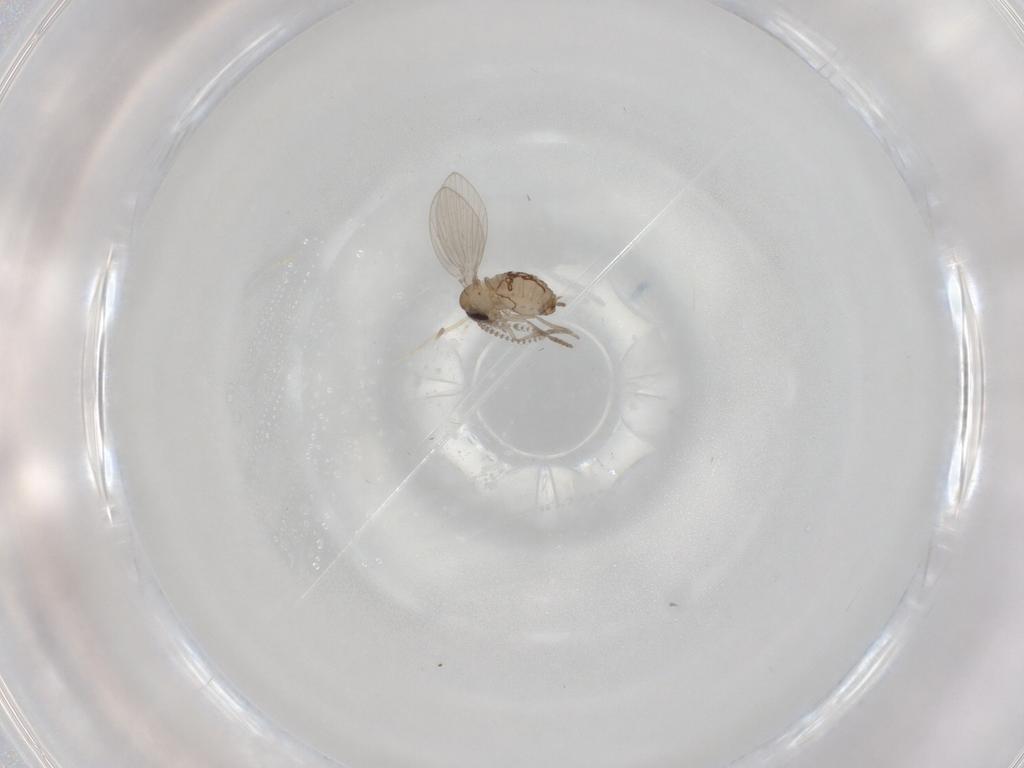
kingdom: Animalia
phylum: Arthropoda
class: Insecta
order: Diptera
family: Psychodidae
